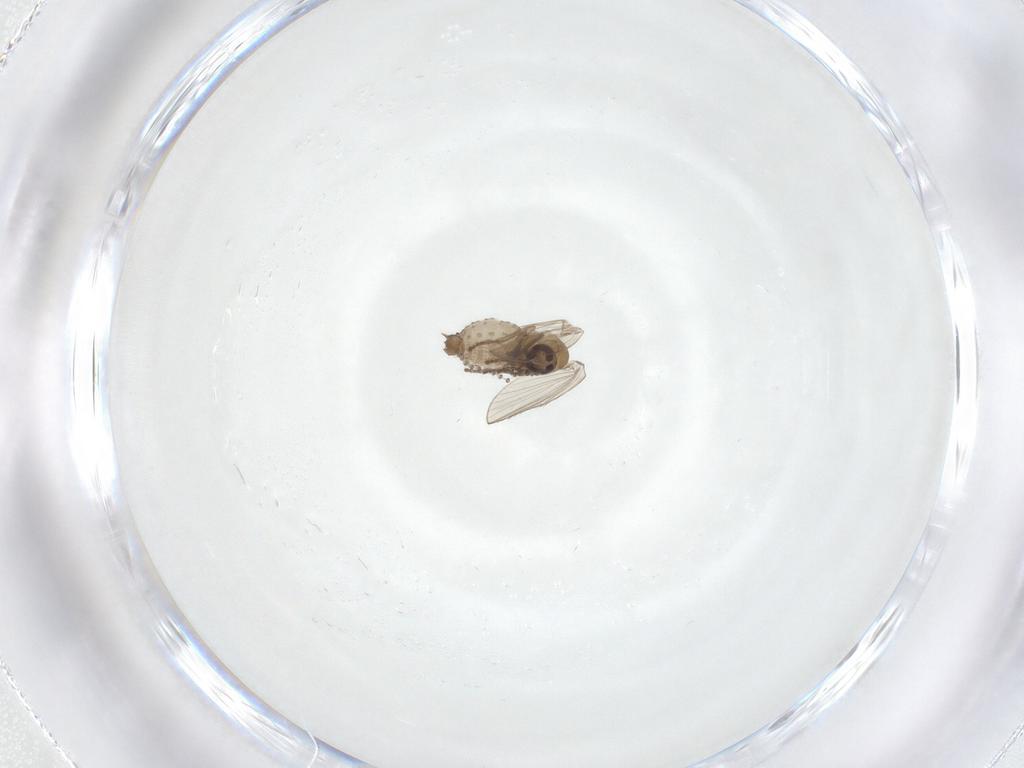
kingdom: Animalia
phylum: Arthropoda
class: Insecta
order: Diptera
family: Psychodidae
